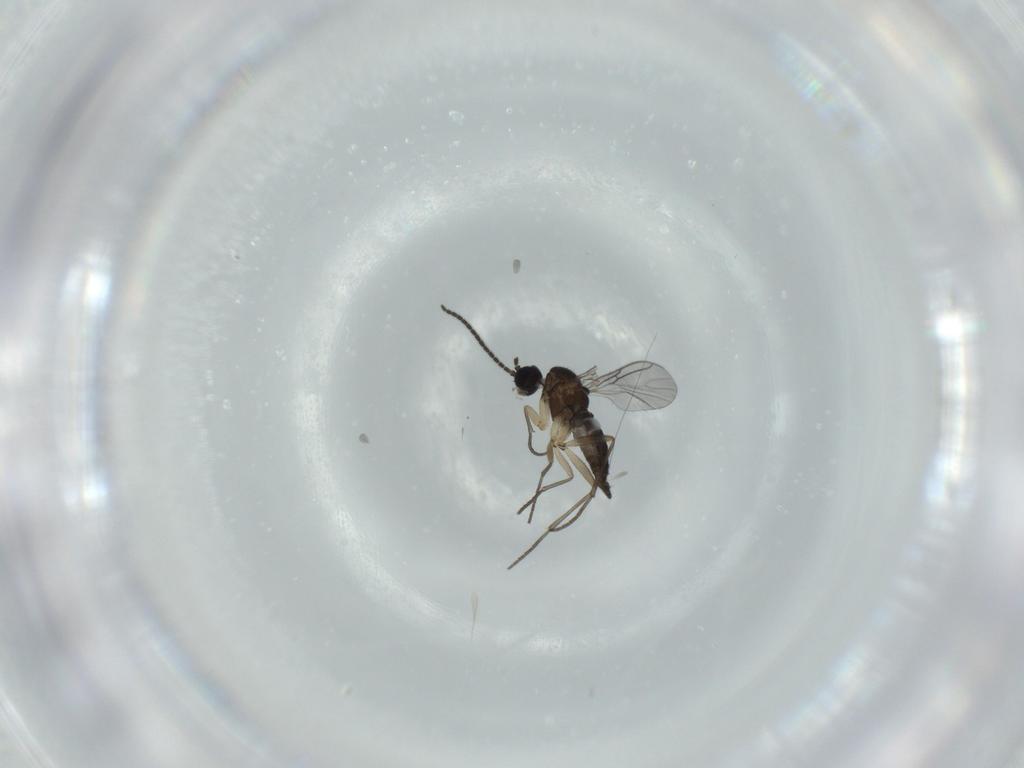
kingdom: Animalia
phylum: Arthropoda
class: Insecta
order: Diptera
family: Sciaridae
